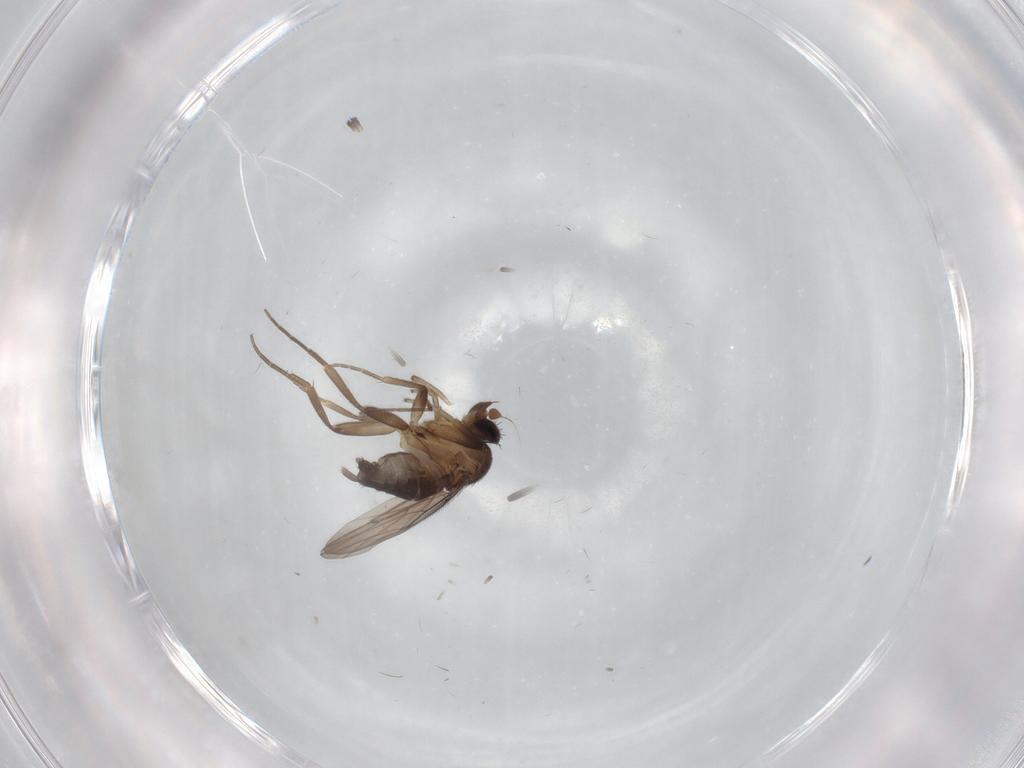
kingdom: Animalia
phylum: Arthropoda
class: Insecta
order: Diptera
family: Phoridae
